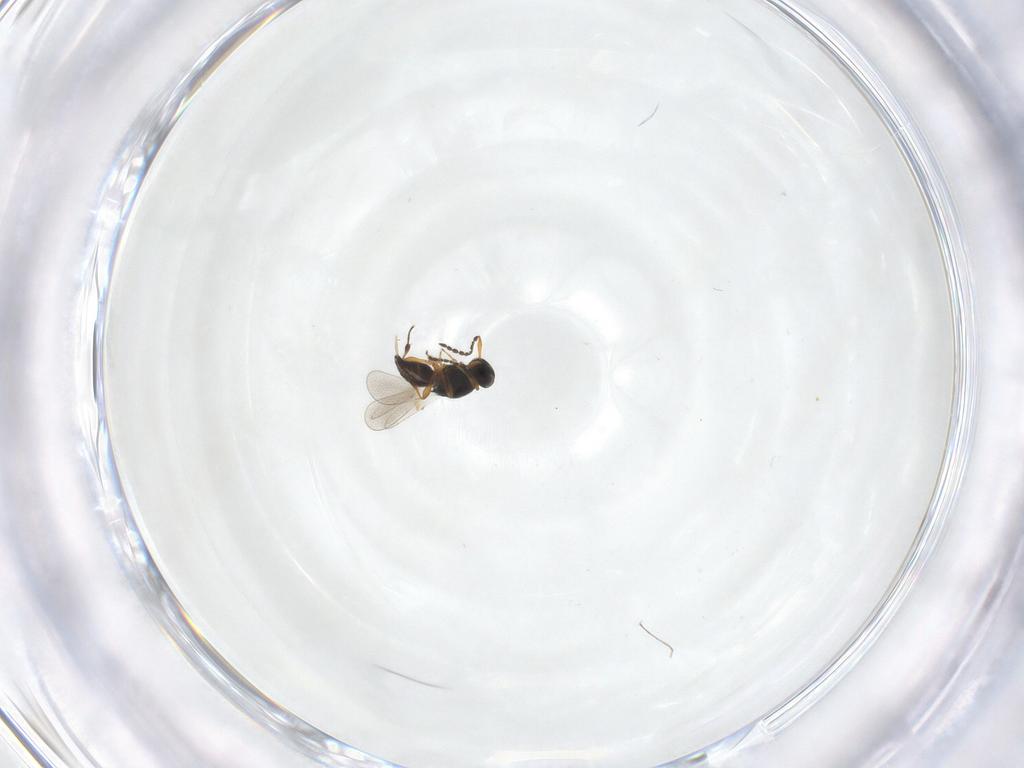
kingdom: Animalia
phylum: Arthropoda
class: Insecta
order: Hymenoptera
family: Platygastridae
